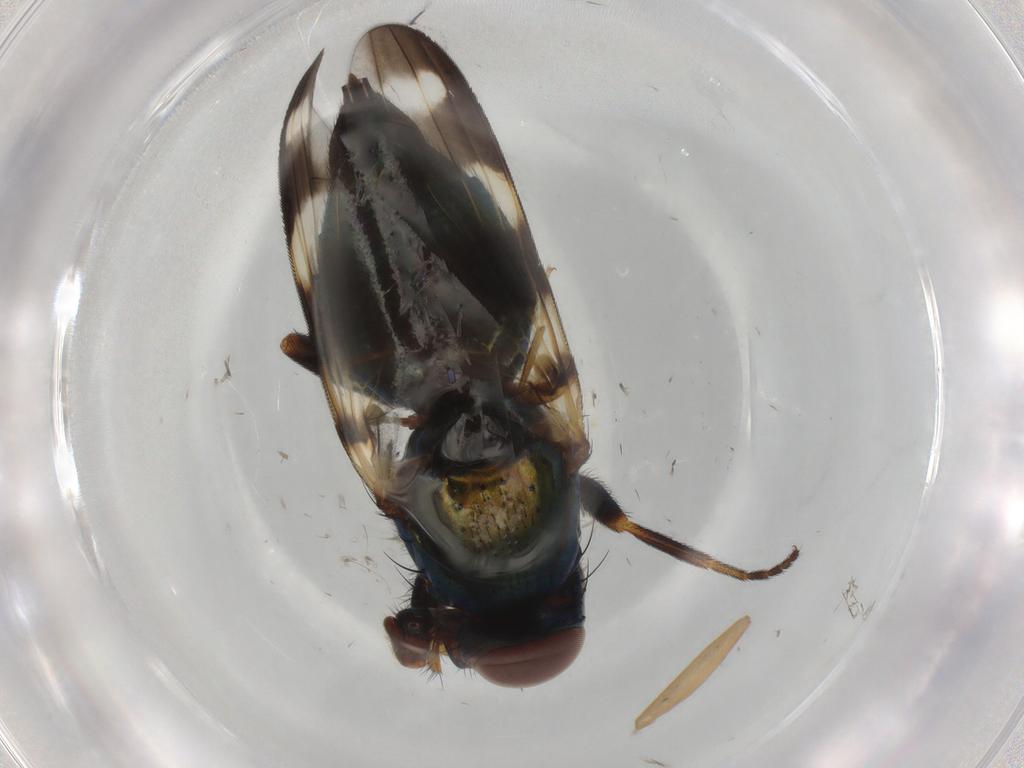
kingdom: Animalia
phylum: Arthropoda
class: Insecta
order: Diptera
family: Ulidiidae
